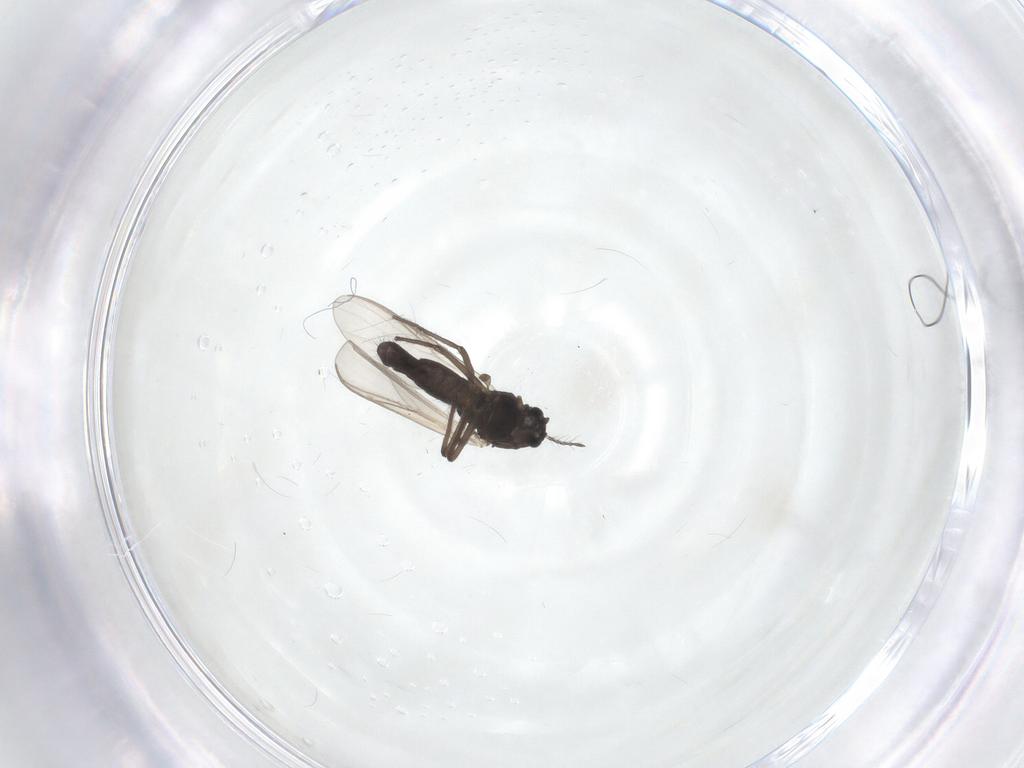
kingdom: Animalia
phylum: Arthropoda
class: Insecta
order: Diptera
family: Chironomidae
